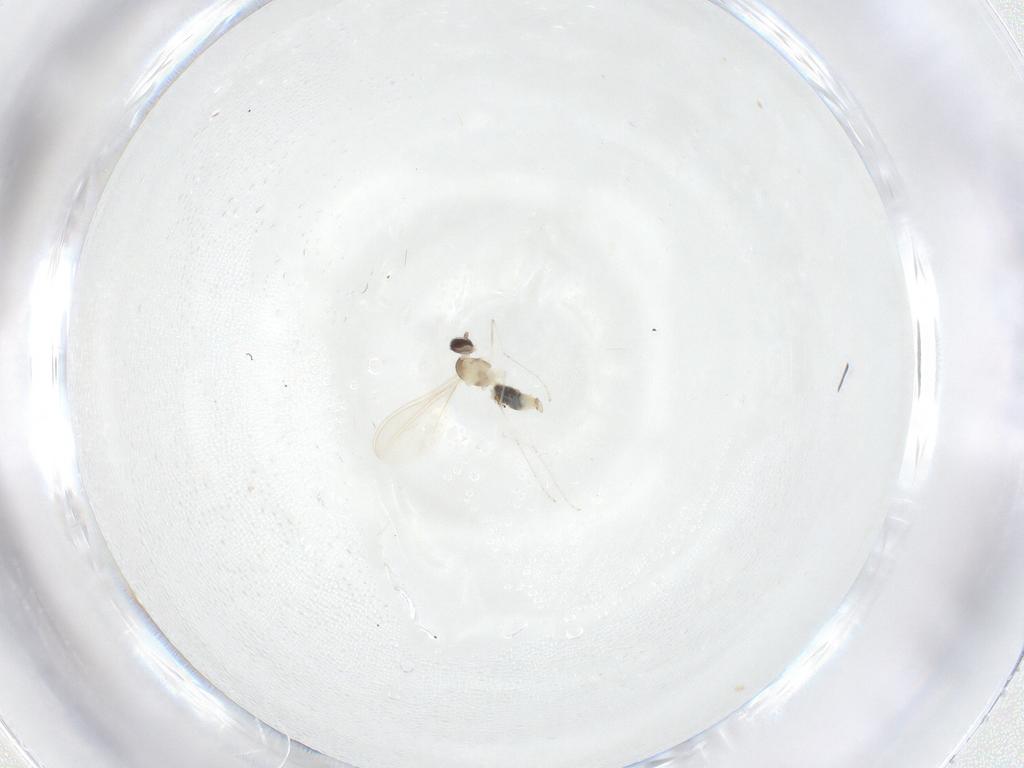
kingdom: Animalia
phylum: Arthropoda
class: Insecta
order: Diptera
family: Cecidomyiidae
